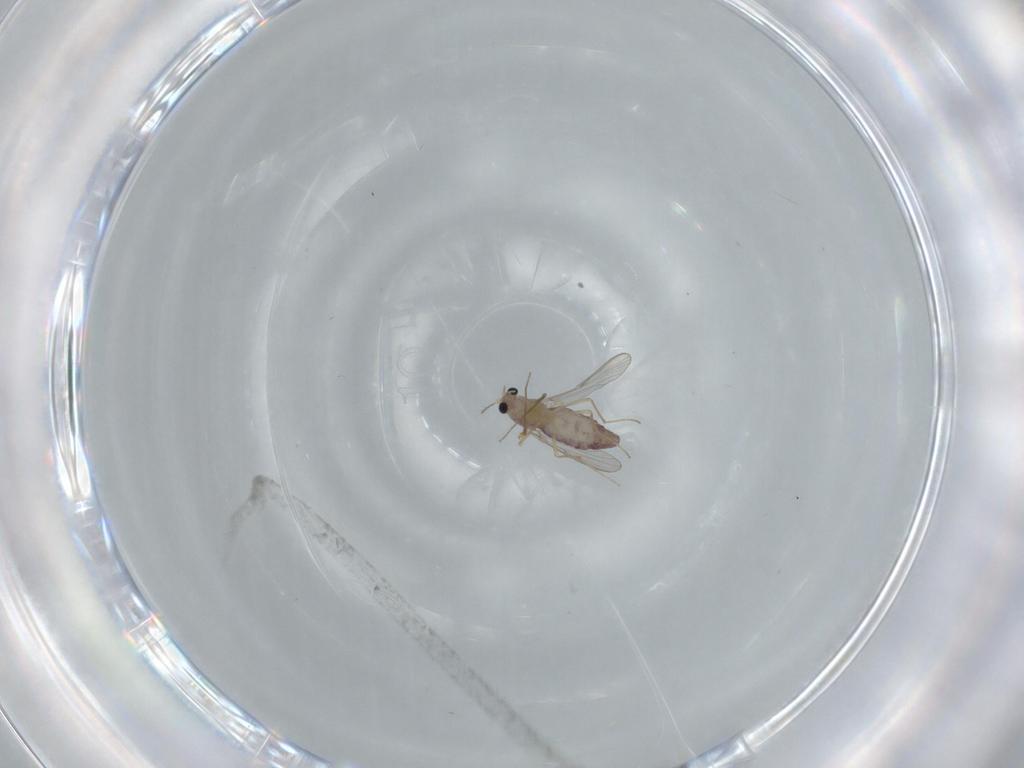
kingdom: Animalia
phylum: Arthropoda
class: Insecta
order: Diptera
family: Chironomidae
